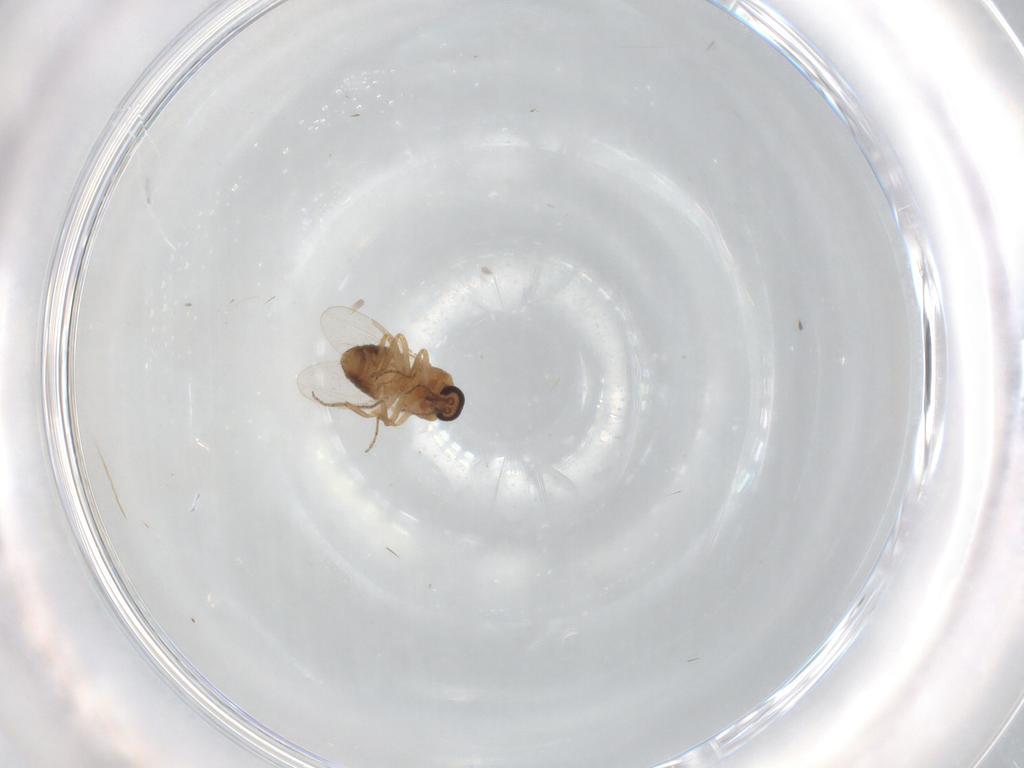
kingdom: Animalia
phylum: Arthropoda
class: Insecta
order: Diptera
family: Ceratopogonidae
